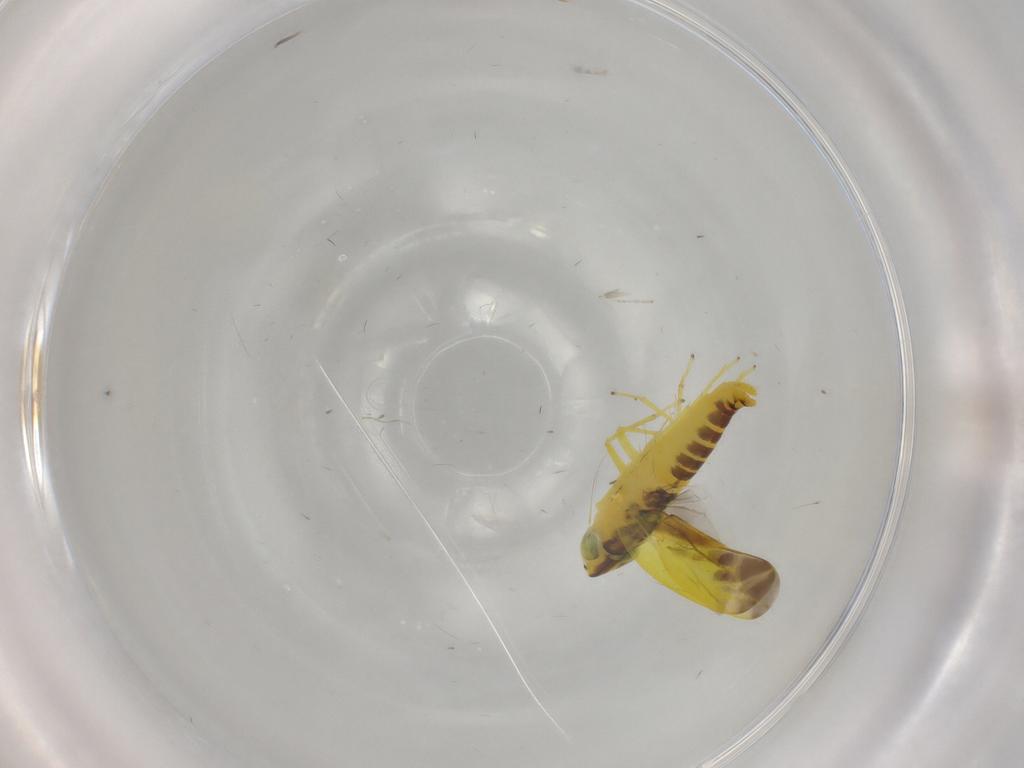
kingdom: Animalia
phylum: Arthropoda
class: Insecta
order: Hemiptera
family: Cicadellidae
